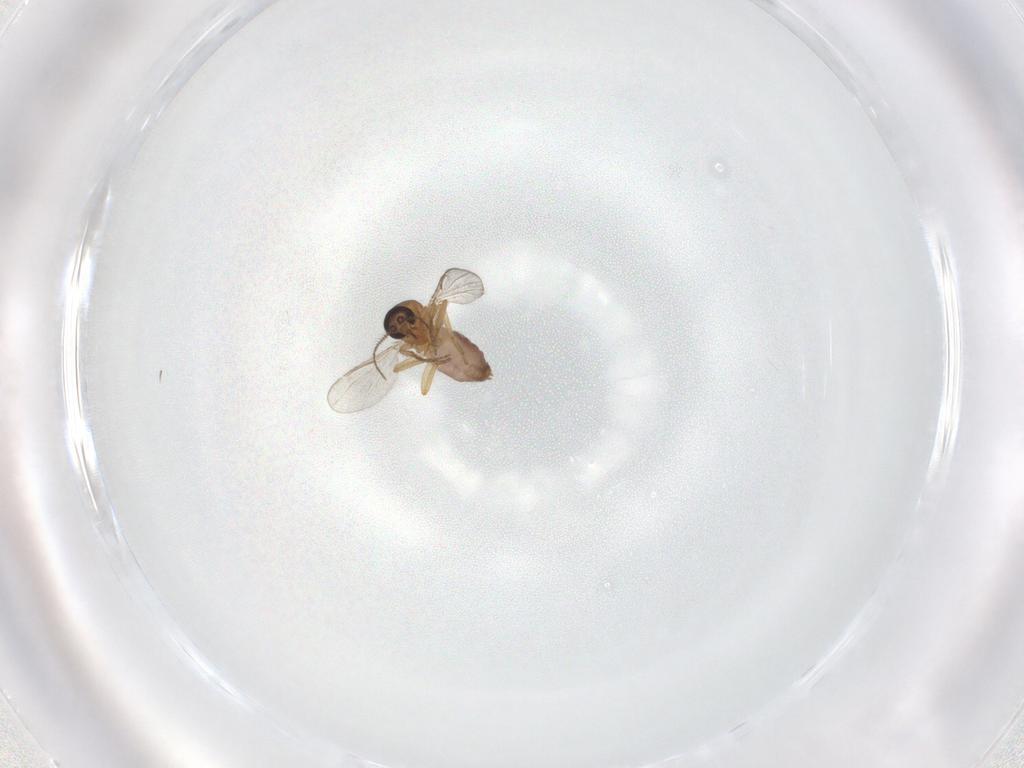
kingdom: Animalia
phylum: Arthropoda
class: Insecta
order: Diptera
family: Ceratopogonidae
